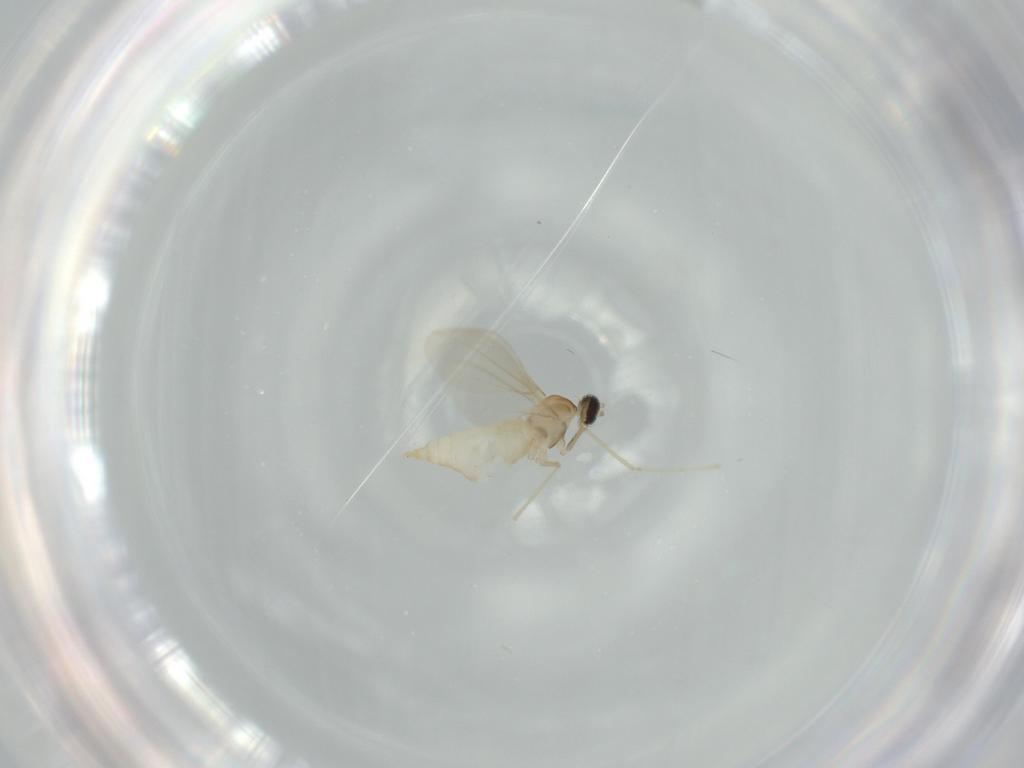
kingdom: Animalia
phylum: Arthropoda
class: Insecta
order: Diptera
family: Cecidomyiidae
